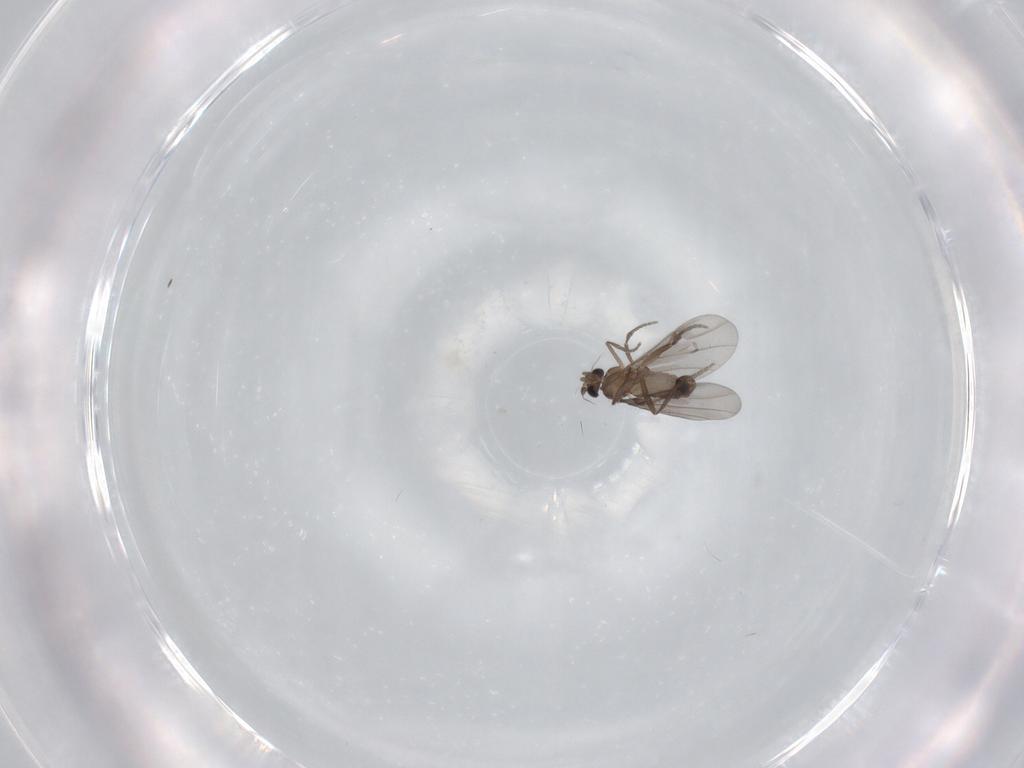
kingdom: Animalia
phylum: Arthropoda
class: Insecta
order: Diptera
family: Phoridae
